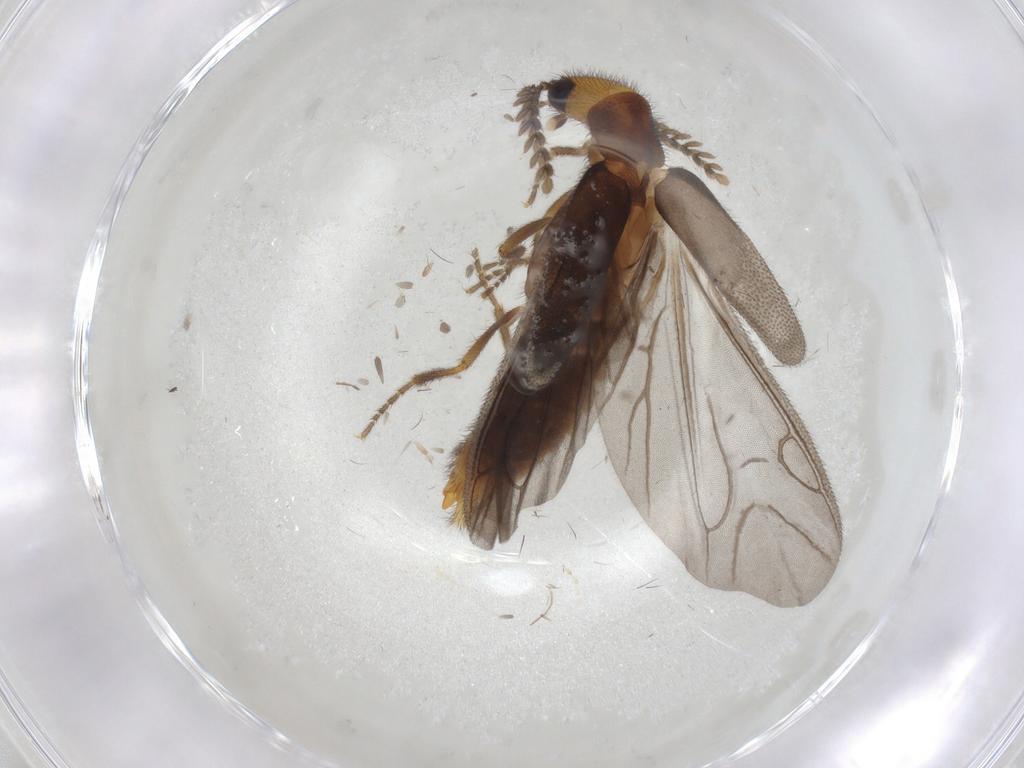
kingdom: Animalia
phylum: Arthropoda
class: Insecta
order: Coleoptera
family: Phengodidae
